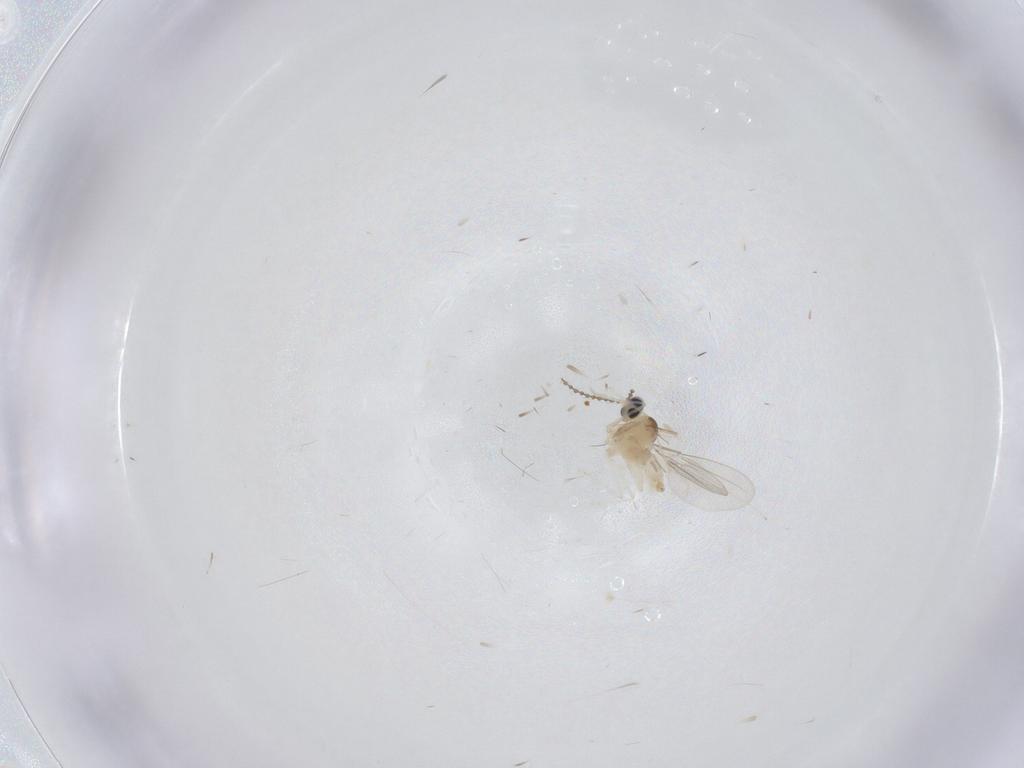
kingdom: Animalia
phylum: Arthropoda
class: Insecta
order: Diptera
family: Cecidomyiidae
